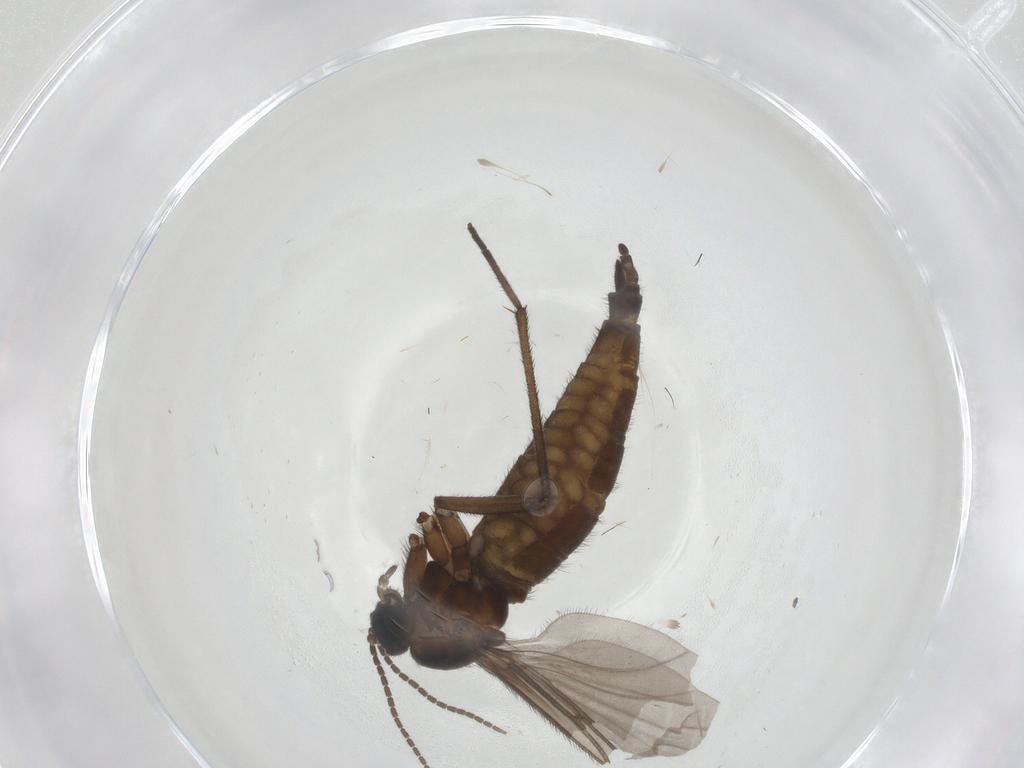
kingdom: Animalia
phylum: Arthropoda
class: Insecta
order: Diptera
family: Sciaridae
